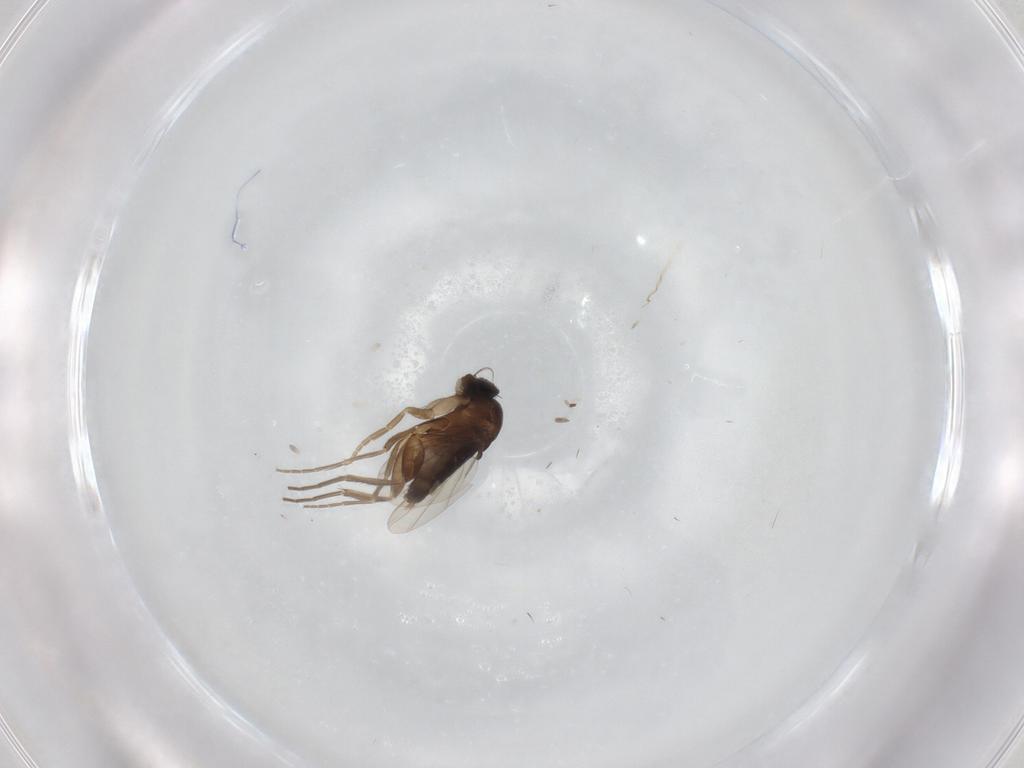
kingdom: Animalia
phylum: Arthropoda
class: Insecta
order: Diptera
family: Phoridae
